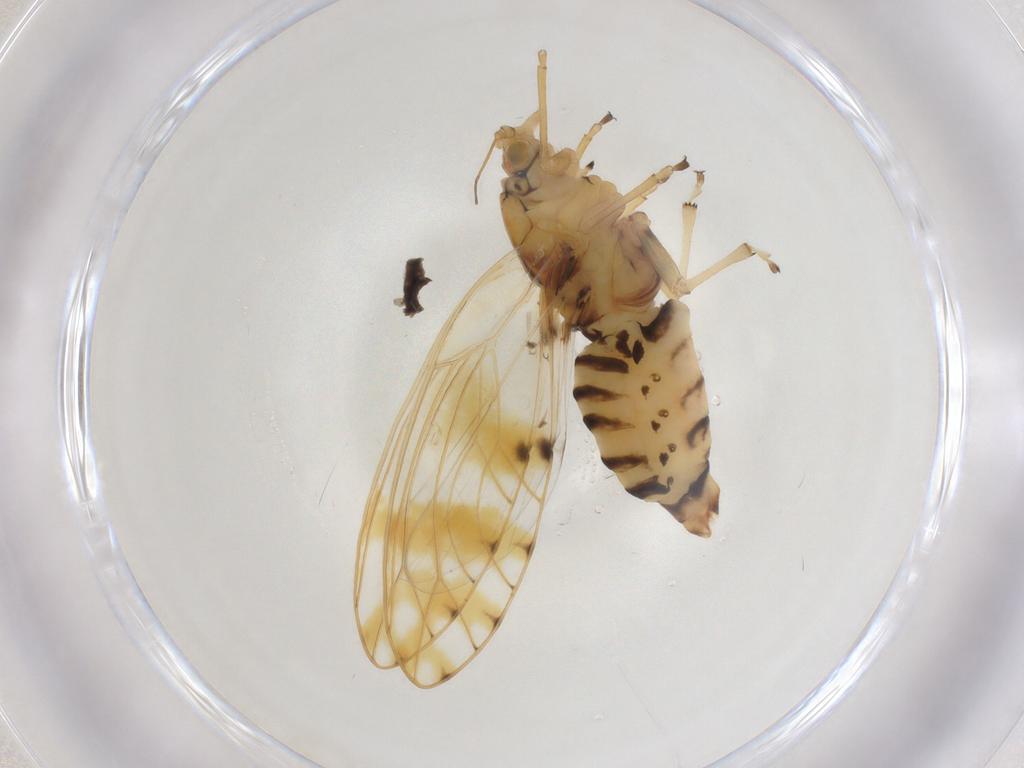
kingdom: Animalia
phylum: Arthropoda
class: Insecta
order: Hemiptera
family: Triozidae
